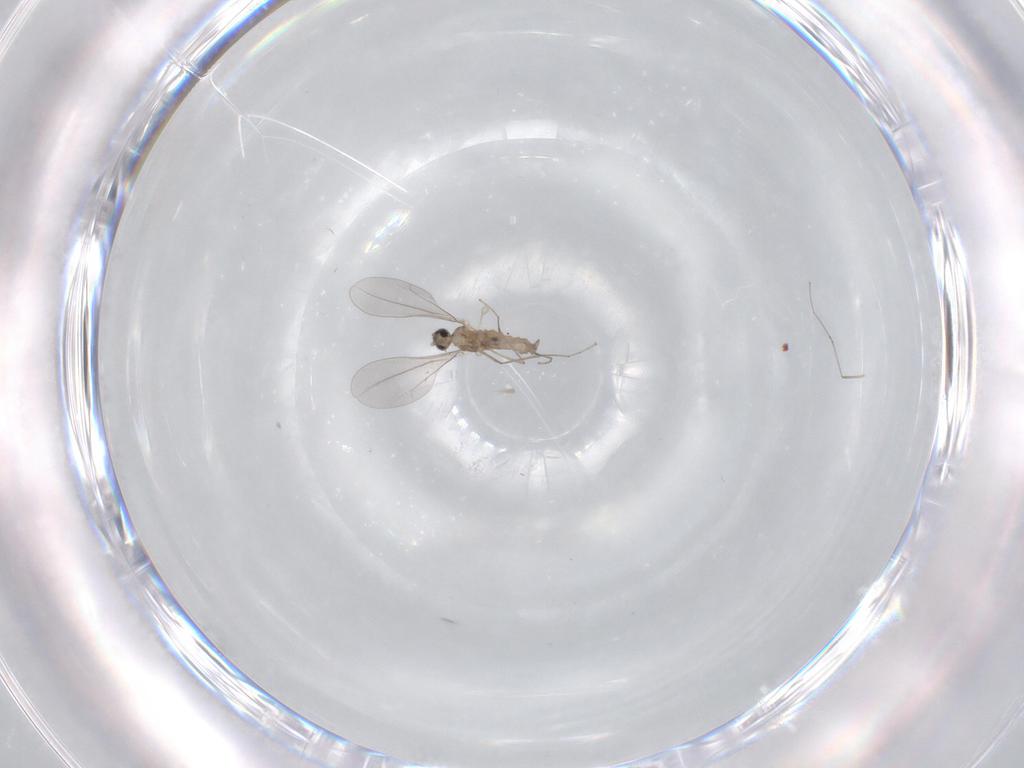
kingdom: Animalia
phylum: Arthropoda
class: Insecta
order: Diptera
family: Cecidomyiidae
